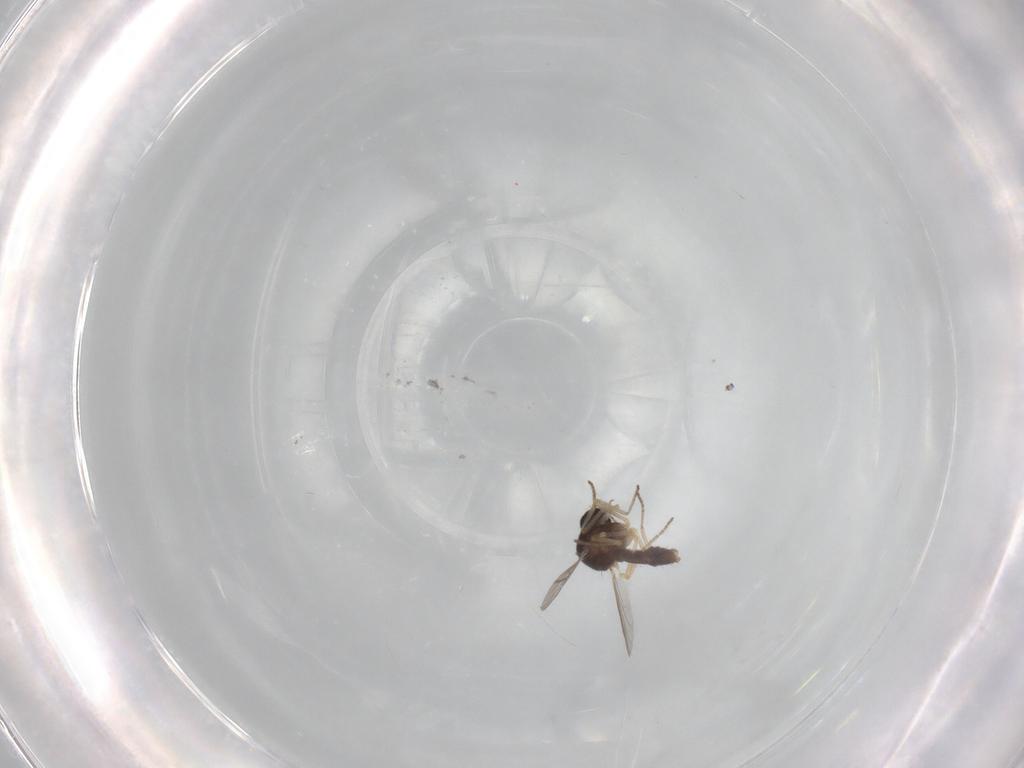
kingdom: Animalia
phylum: Arthropoda
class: Insecta
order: Diptera
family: Ceratopogonidae
